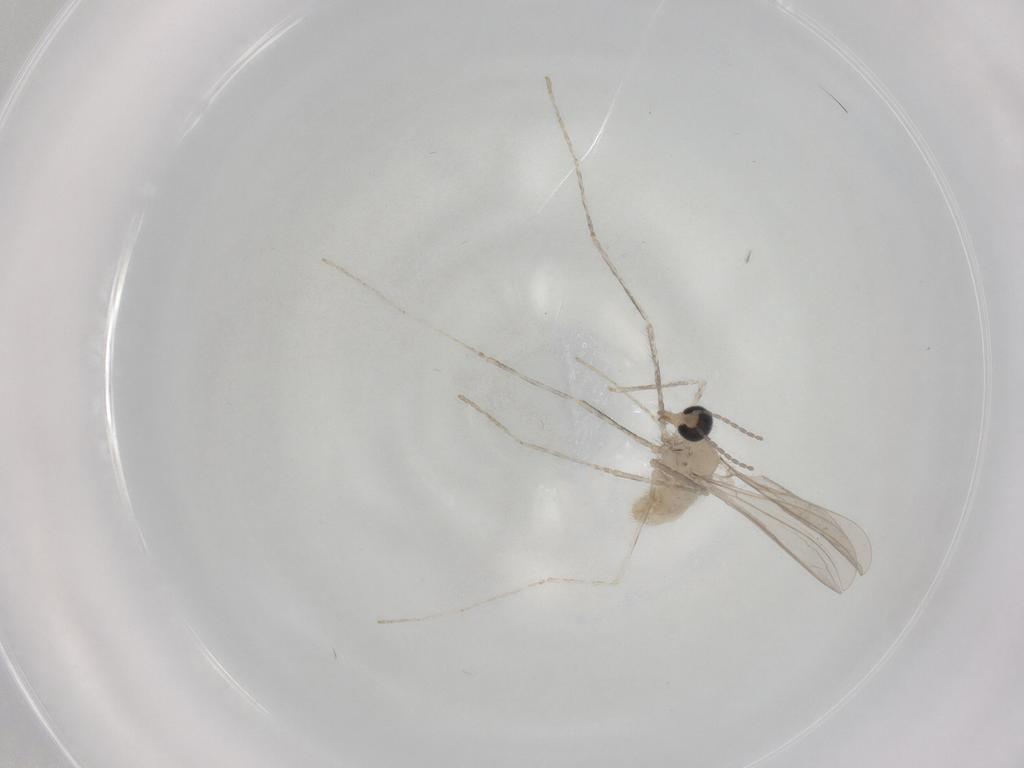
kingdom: Animalia
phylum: Arthropoda
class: Insecta
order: Diptera
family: Cecidomyiidae
